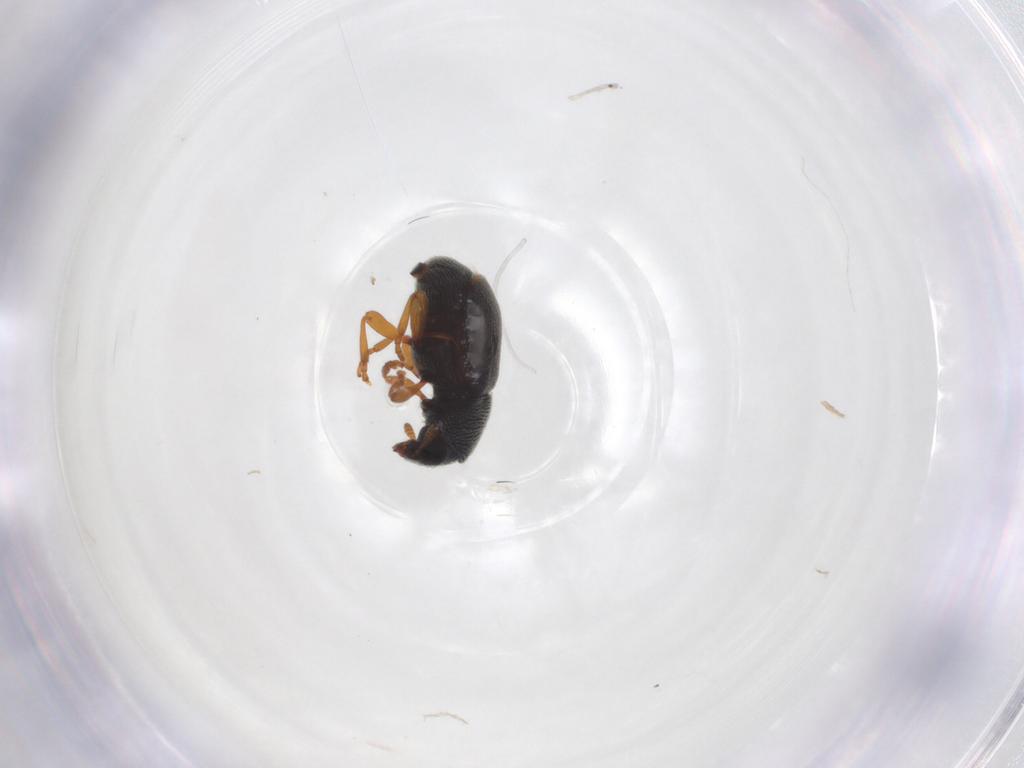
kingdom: Animalia
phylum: Arthropoda
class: Insecta
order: Coleoptera
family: Anthribidae
